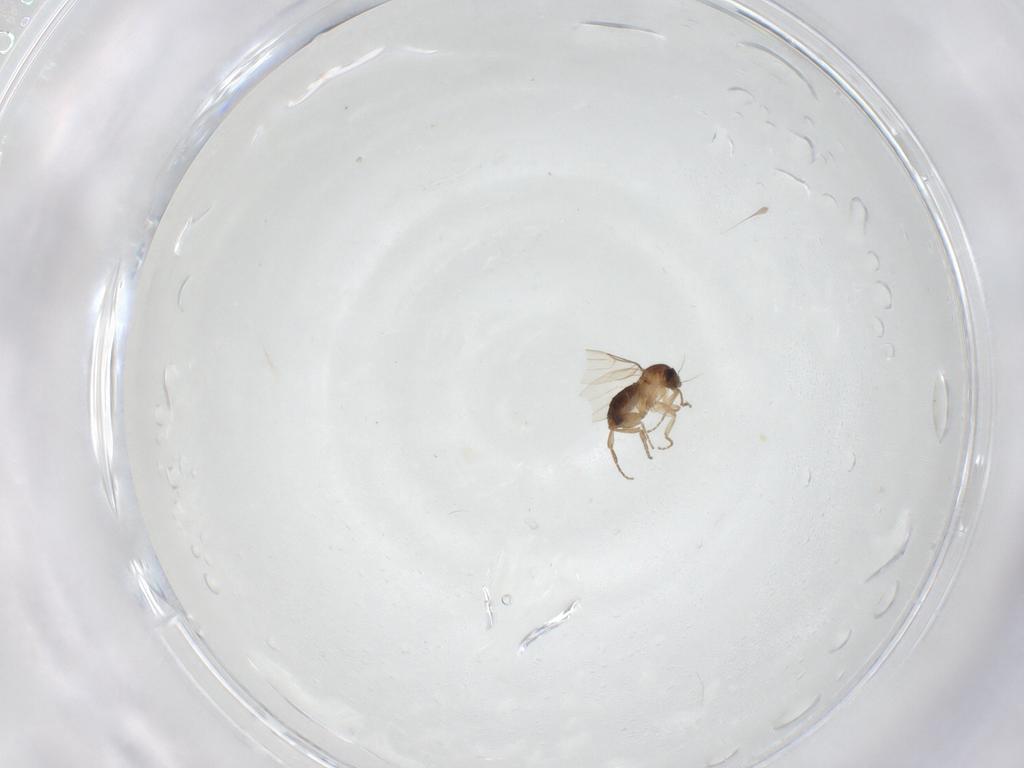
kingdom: Animalia
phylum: Arthropoda
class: Insecta
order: Diptera
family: Phoridae
